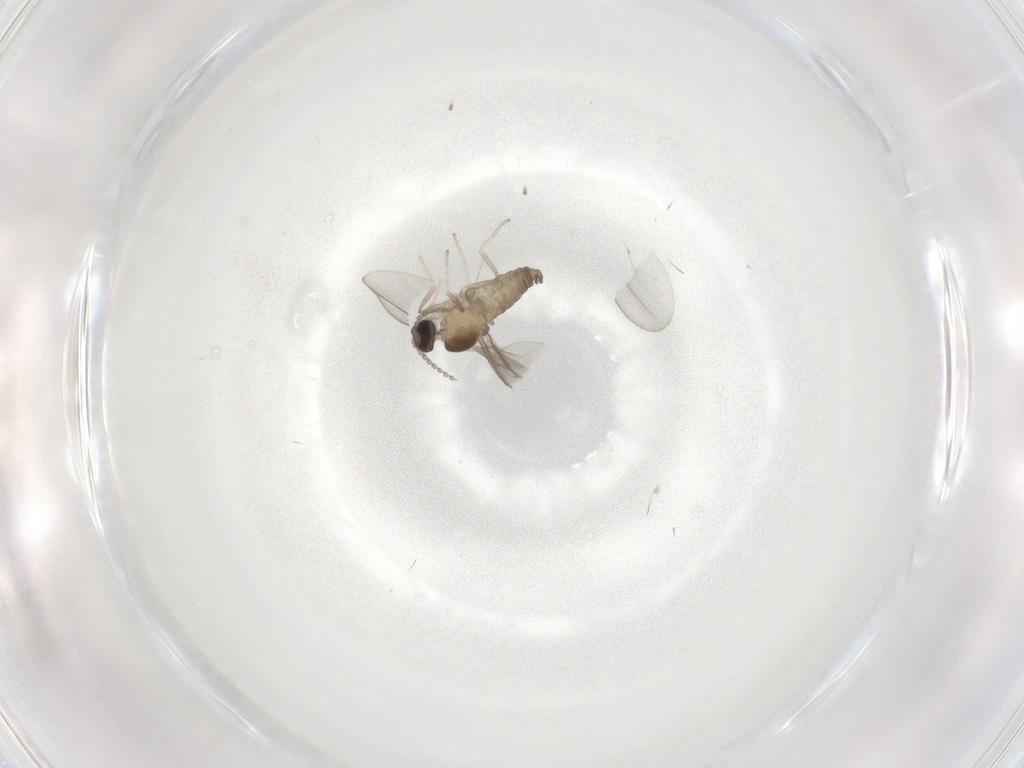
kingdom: Animalia
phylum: Arthropoda
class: Insecta
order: Diptera
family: Cecidomyiidae
